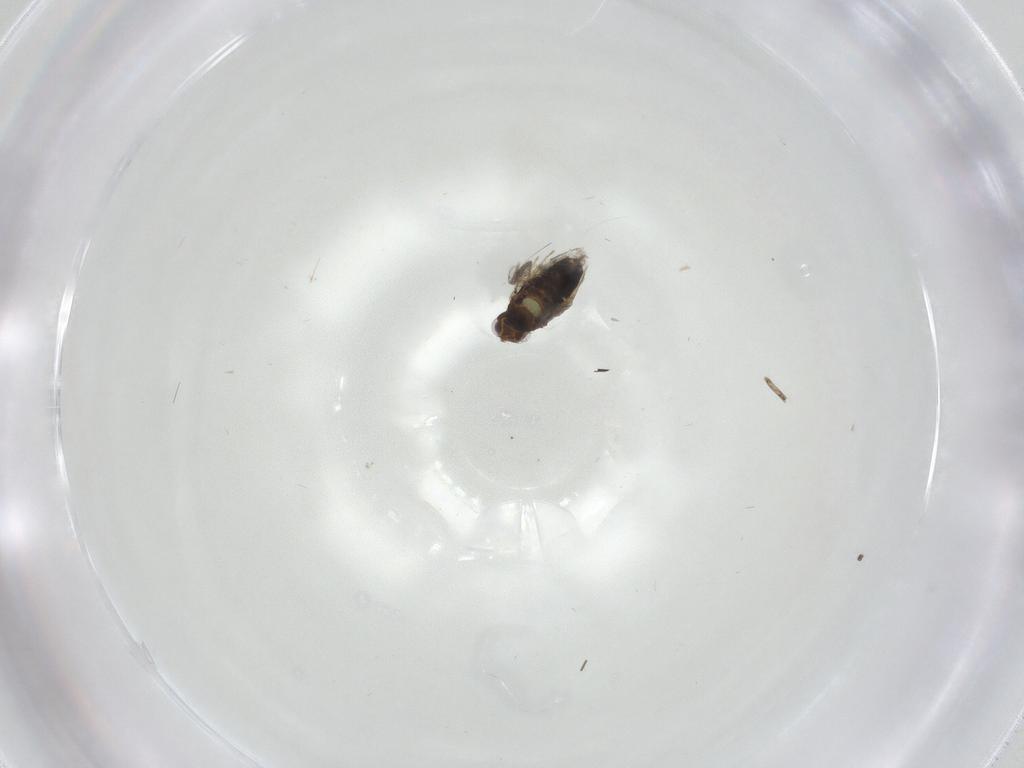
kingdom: Animalia
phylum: Arthropoda
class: Insecta
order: Diptera
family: Sciaridae
